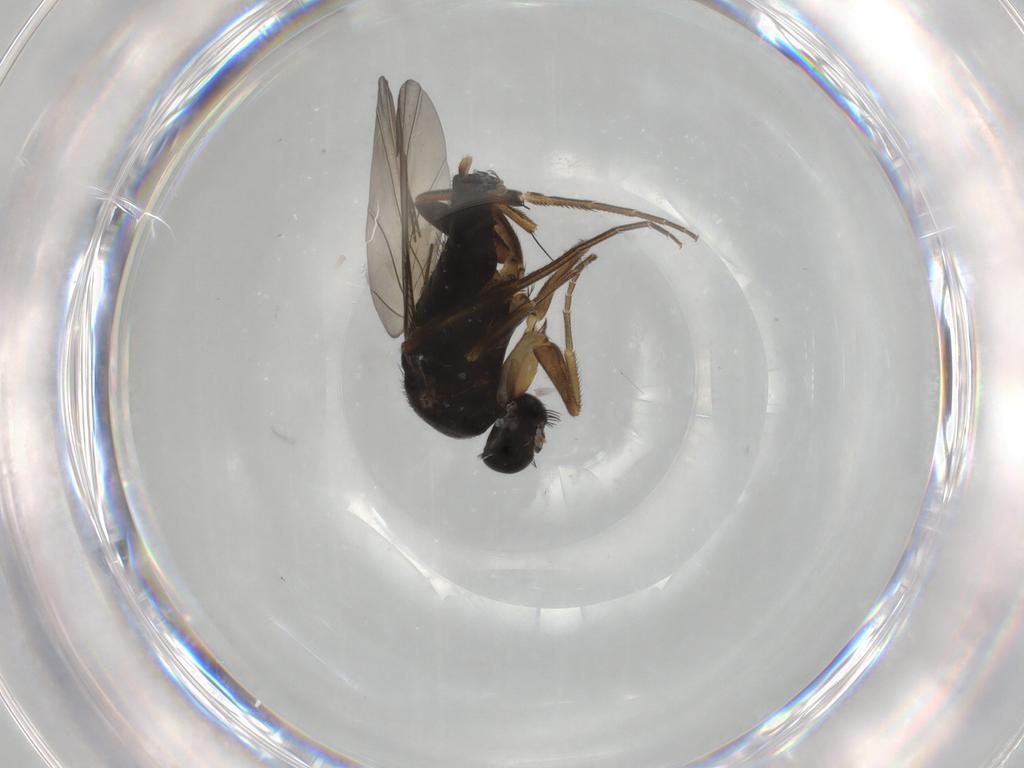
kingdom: Animalia
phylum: Arthropoda
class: Insecta
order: Diptera
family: Phoridae
